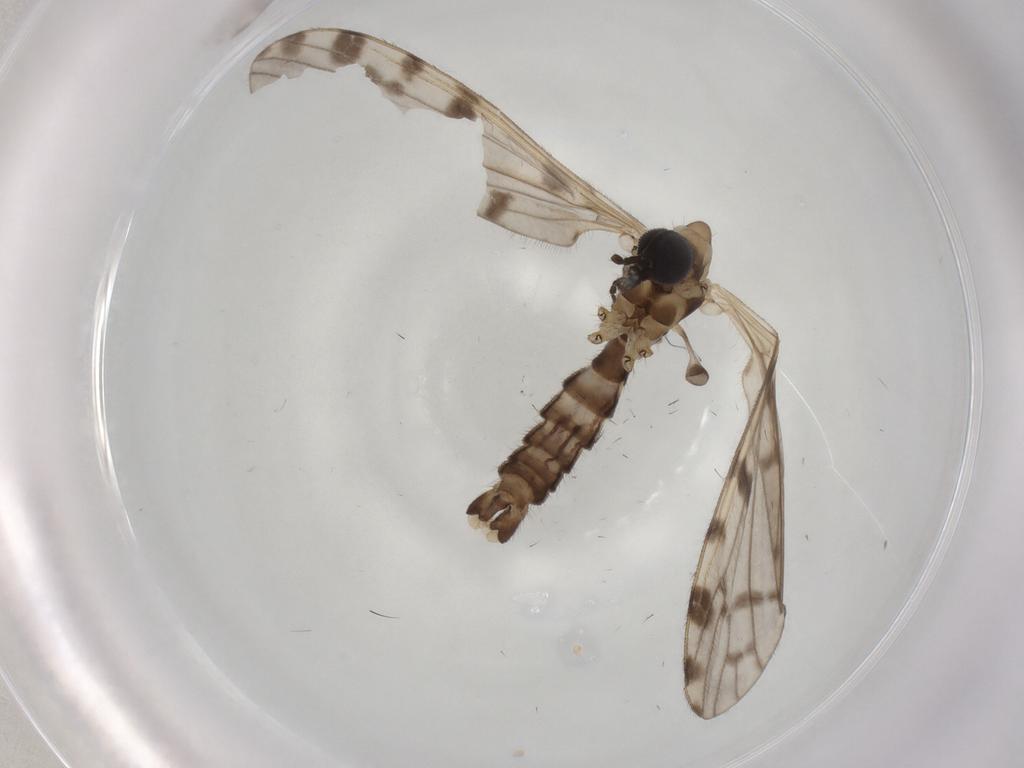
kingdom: Animalia
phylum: Arthropoda
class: Insecta
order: Diptera
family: Limoniidae
